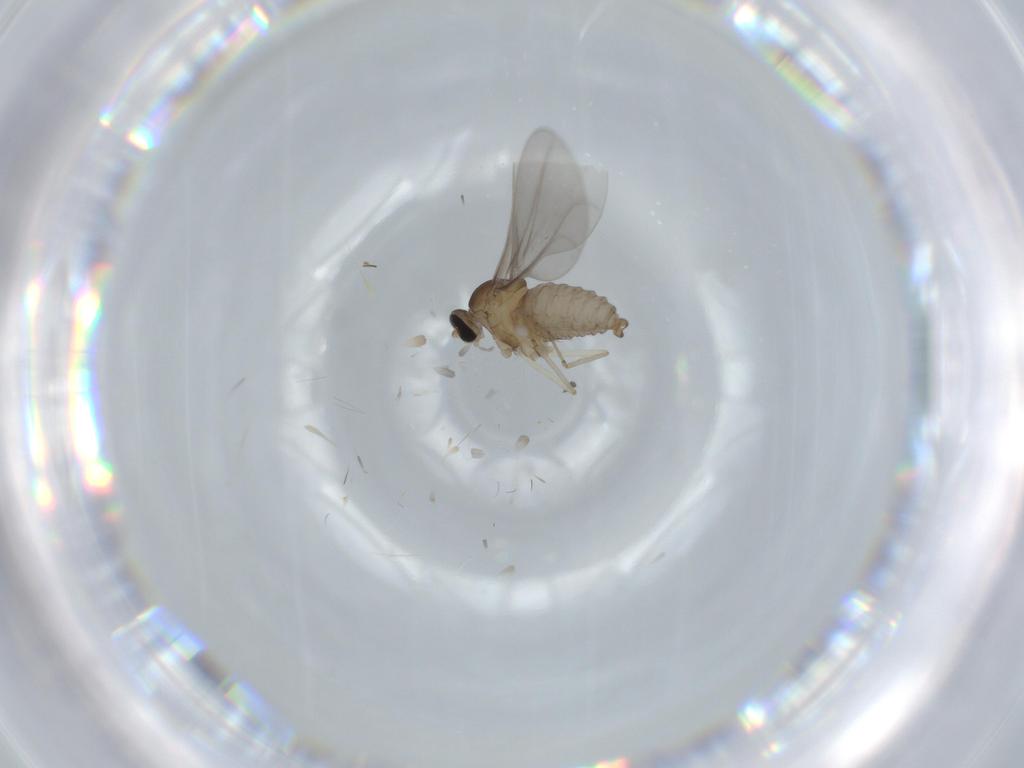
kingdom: Animalia
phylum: Arthropoda
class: Insecta
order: Diptera
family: Cecidomyiidae
